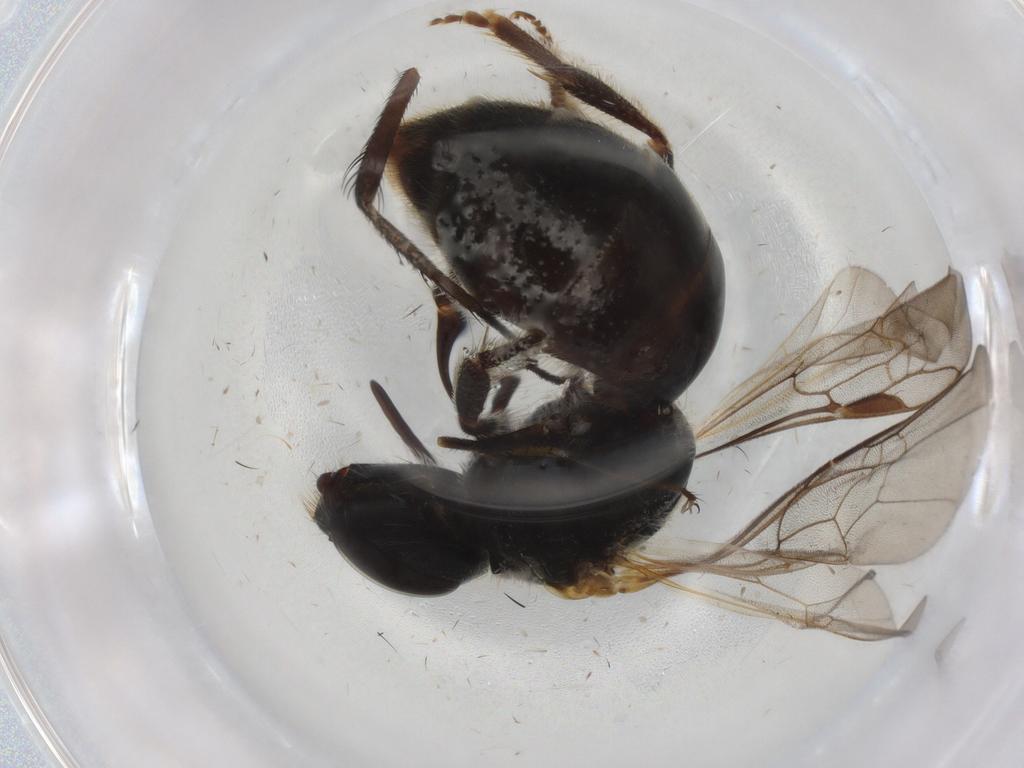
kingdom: Animalia
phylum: Arthropoda
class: Insecta
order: Hymenoptera
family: Halictidae
